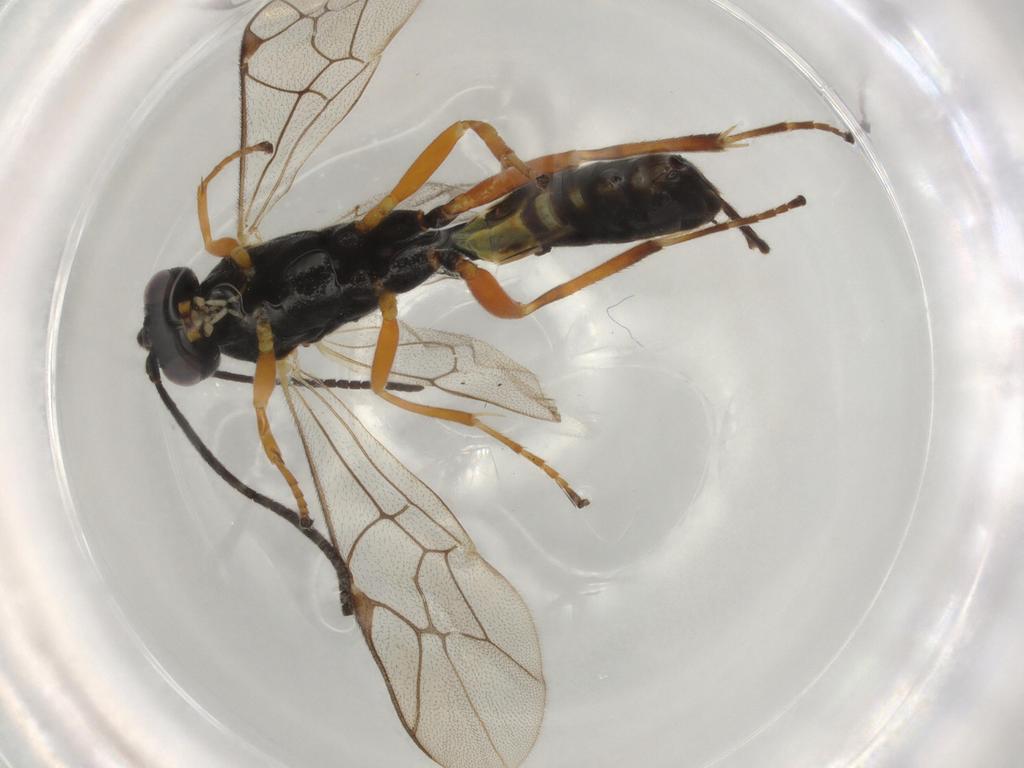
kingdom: Animalia
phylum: Arthropoda
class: Insecta
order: Hymenoptera
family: Ichneumonidae
